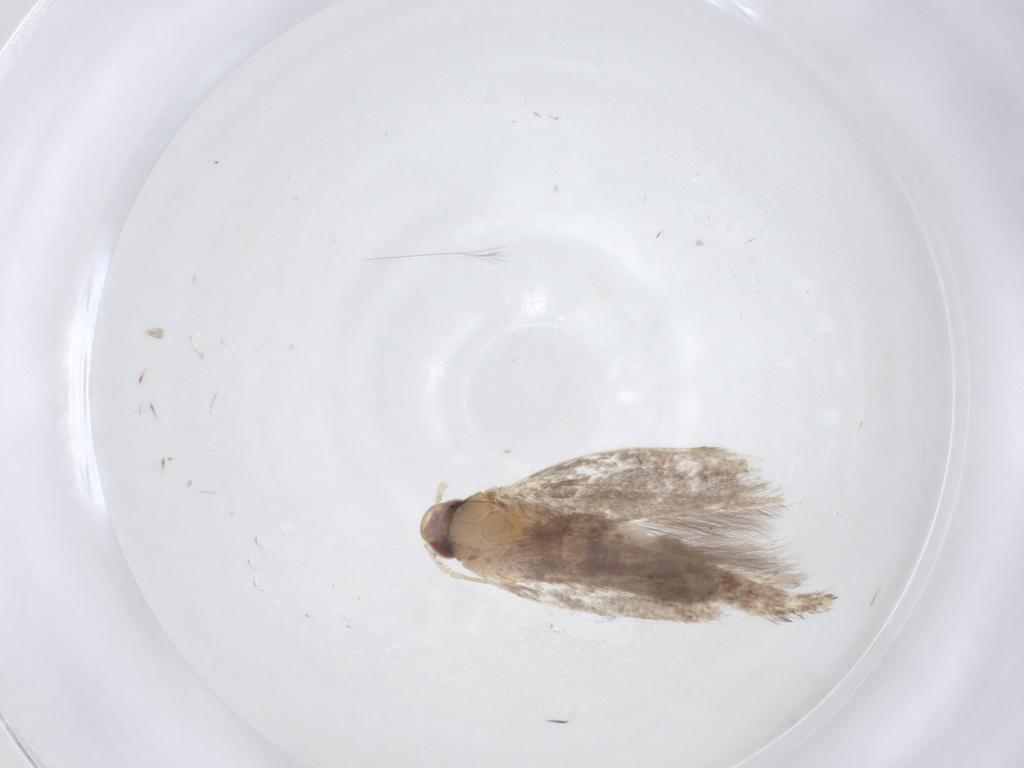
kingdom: Animalia
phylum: Arthropoda
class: Insecta
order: Lepidoptera
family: Cosmopterigidae
